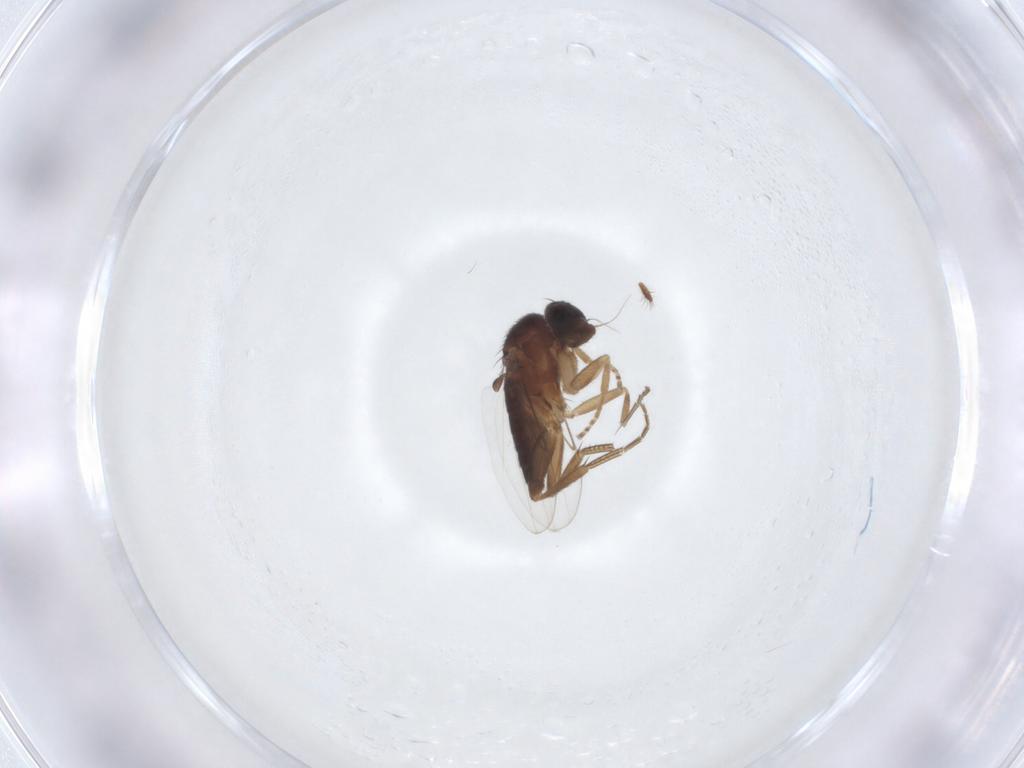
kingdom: Animalia
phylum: Arthropoda
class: Insecta
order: Diptera
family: Phoridae
